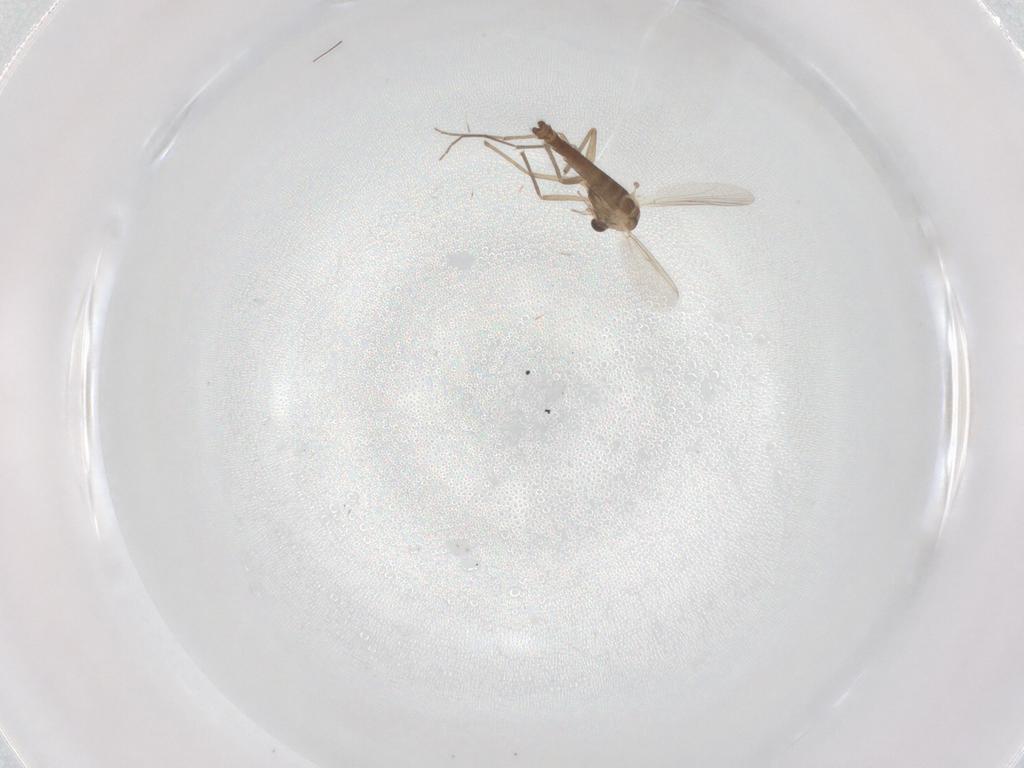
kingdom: Animalia
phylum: Arthropoda
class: Insecta
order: Diptera
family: Chironomidae
